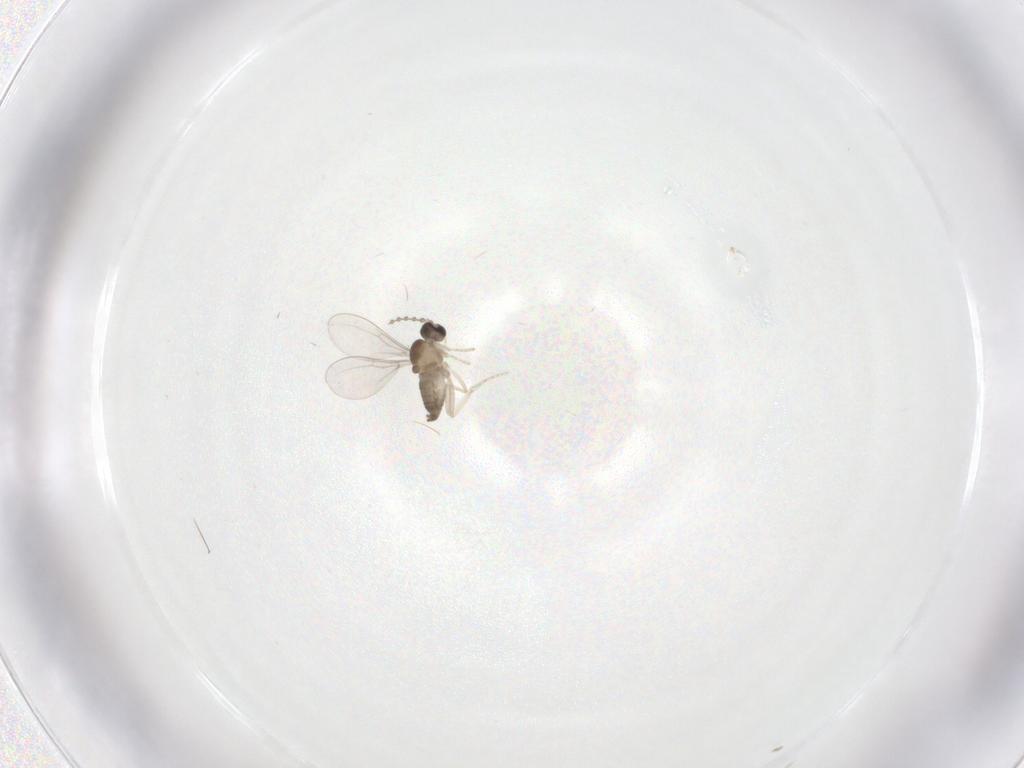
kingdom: Animalia
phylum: Arthropoda
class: Insecta
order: Diptera
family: Cecidomyiidae
